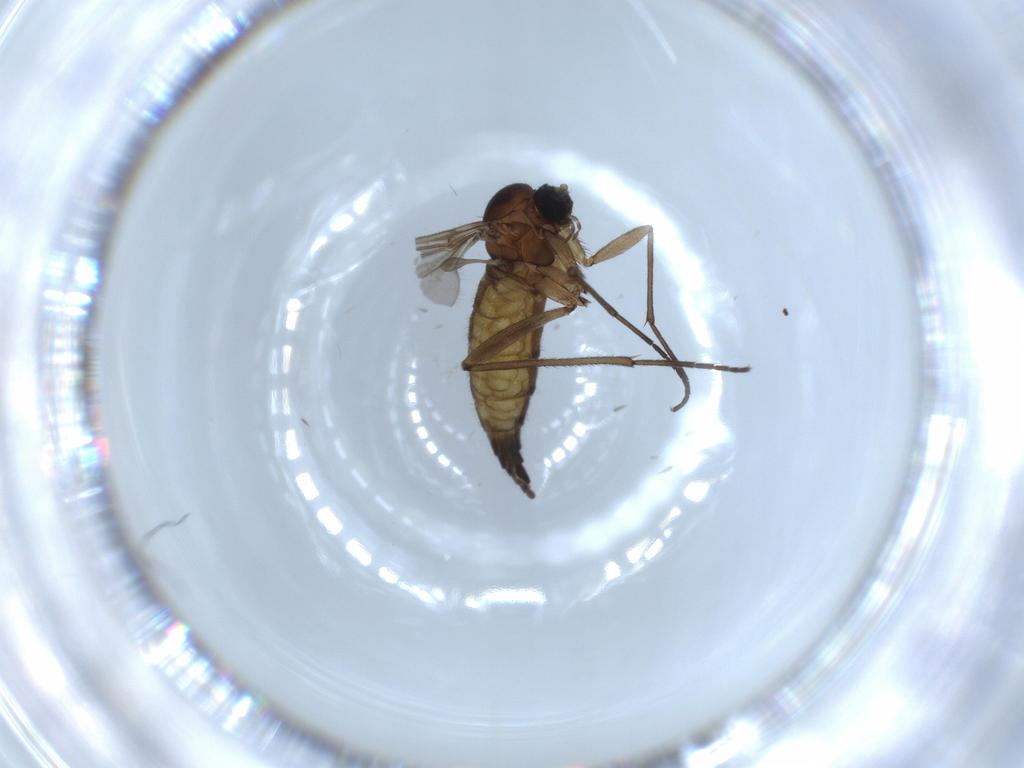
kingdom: Animalia
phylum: Arthropoda
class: Insecta
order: Diptera
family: Sciaridae
